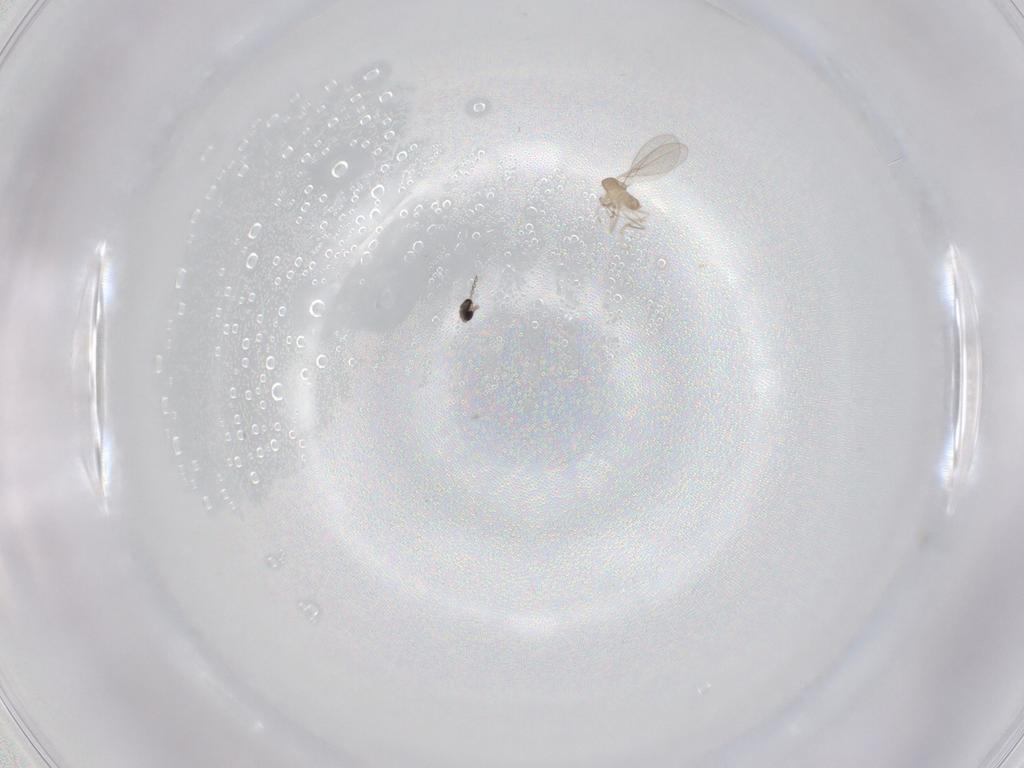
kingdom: Animalia
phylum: Arthropoda
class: Insecta
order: Diptera
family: Cecidomyiidae
